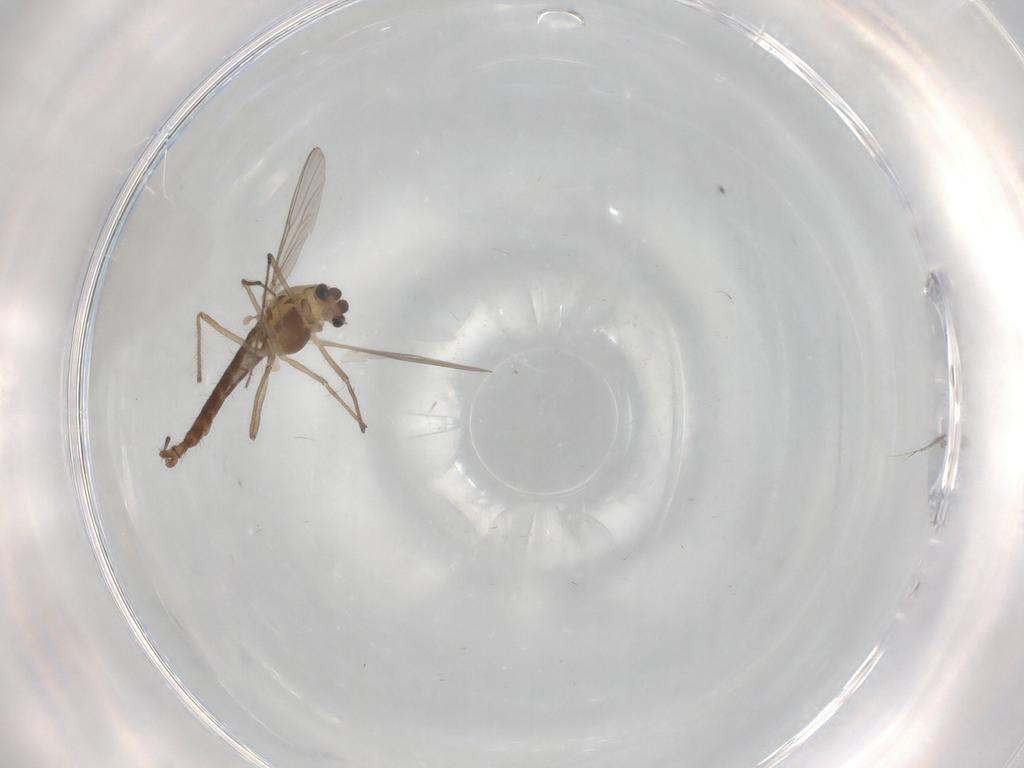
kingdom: Animalia
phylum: Arthropoda
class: Insecta
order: Diptera
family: Chironomidae
